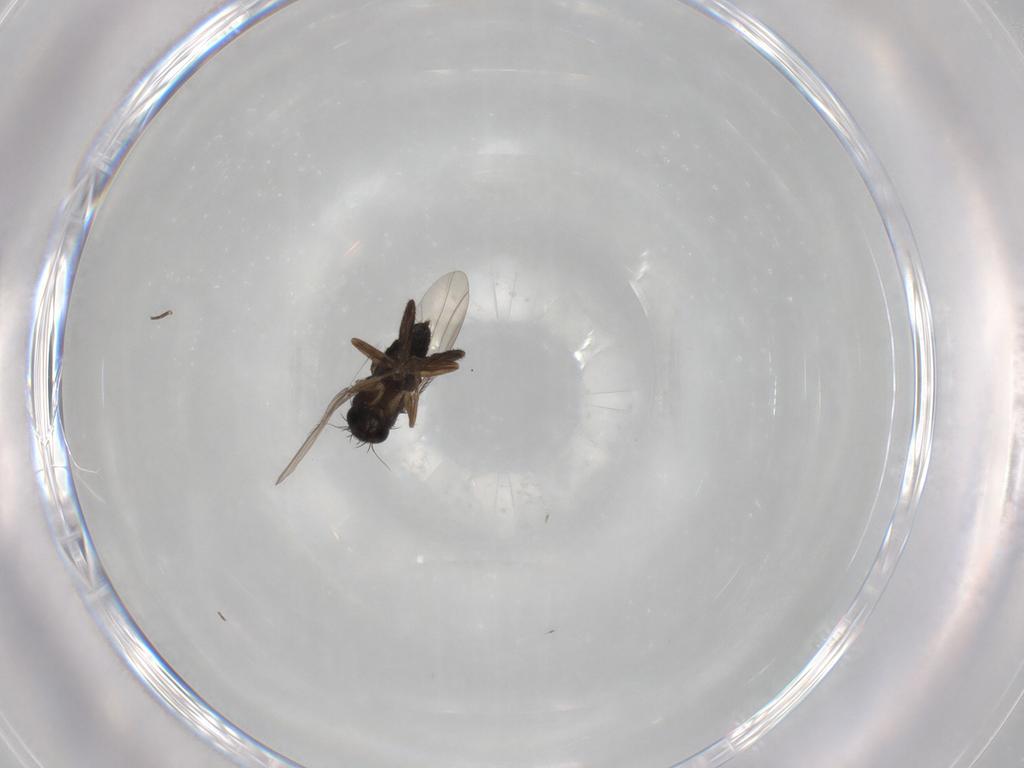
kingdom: Animalia
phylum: Arthropoda
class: Insecta
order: Diptera
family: Phoridae
